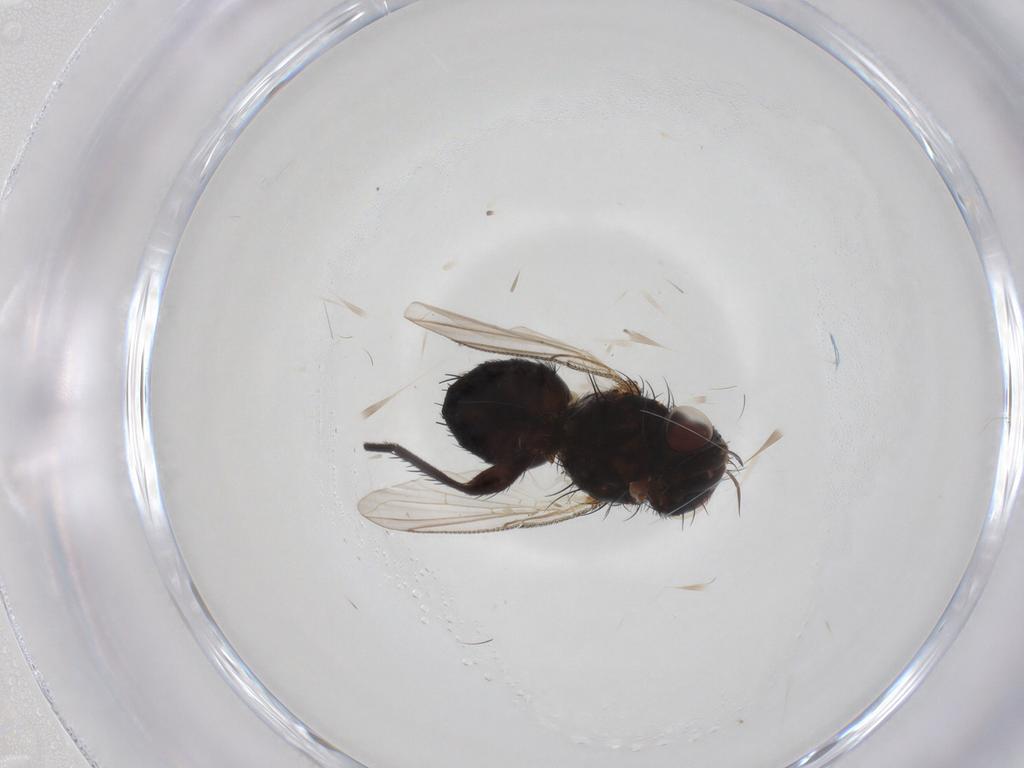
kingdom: Animalia
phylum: Arthropoda
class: Insecta
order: Diptera
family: Tachinidae
